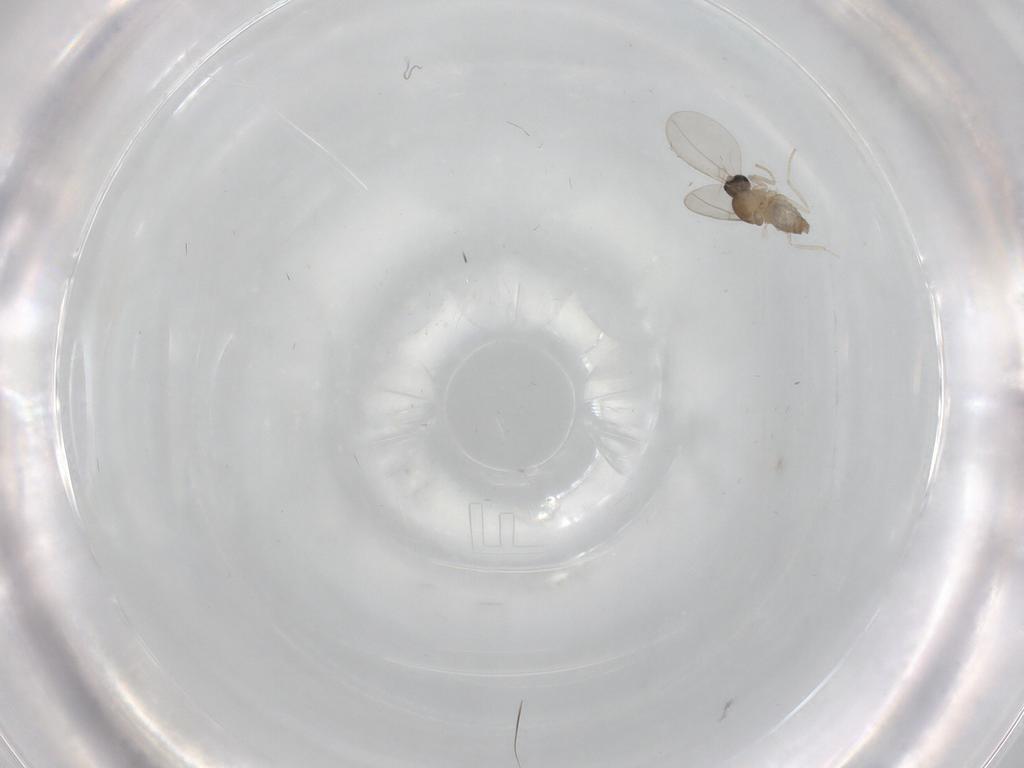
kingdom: Animalia
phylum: Arthropoda
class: Insecta
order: Diptera
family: Cecidomyiidae
